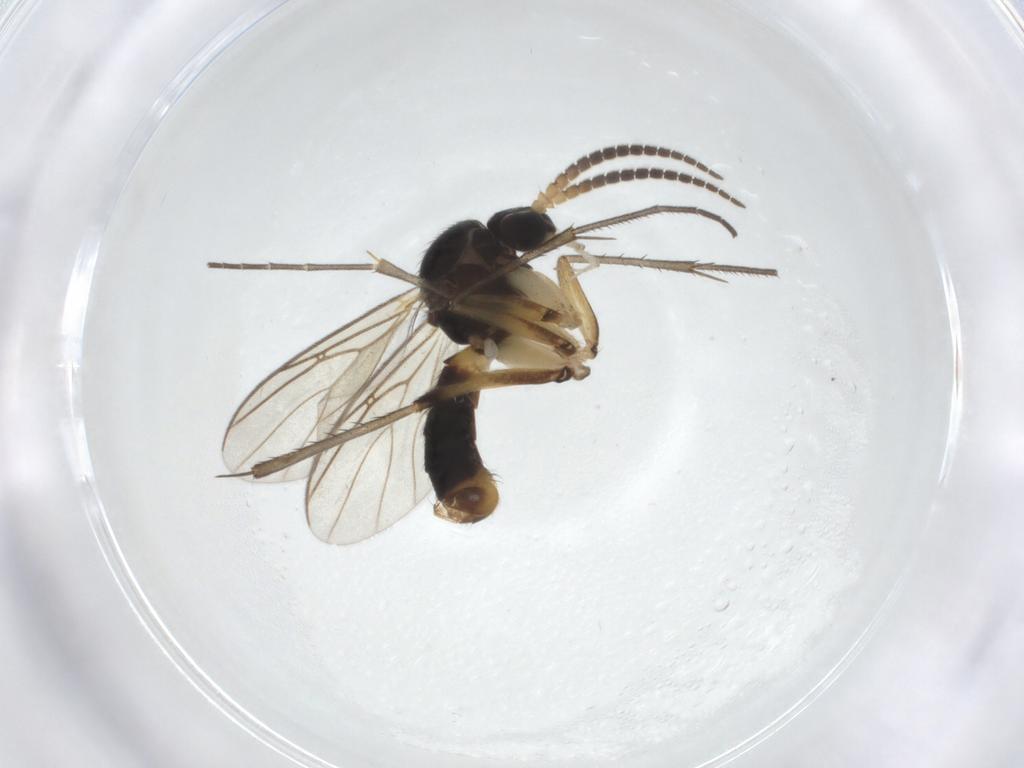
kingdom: Animalia
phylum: Arthropoda
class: Insecta
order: Diptera
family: Mycetophilidae
